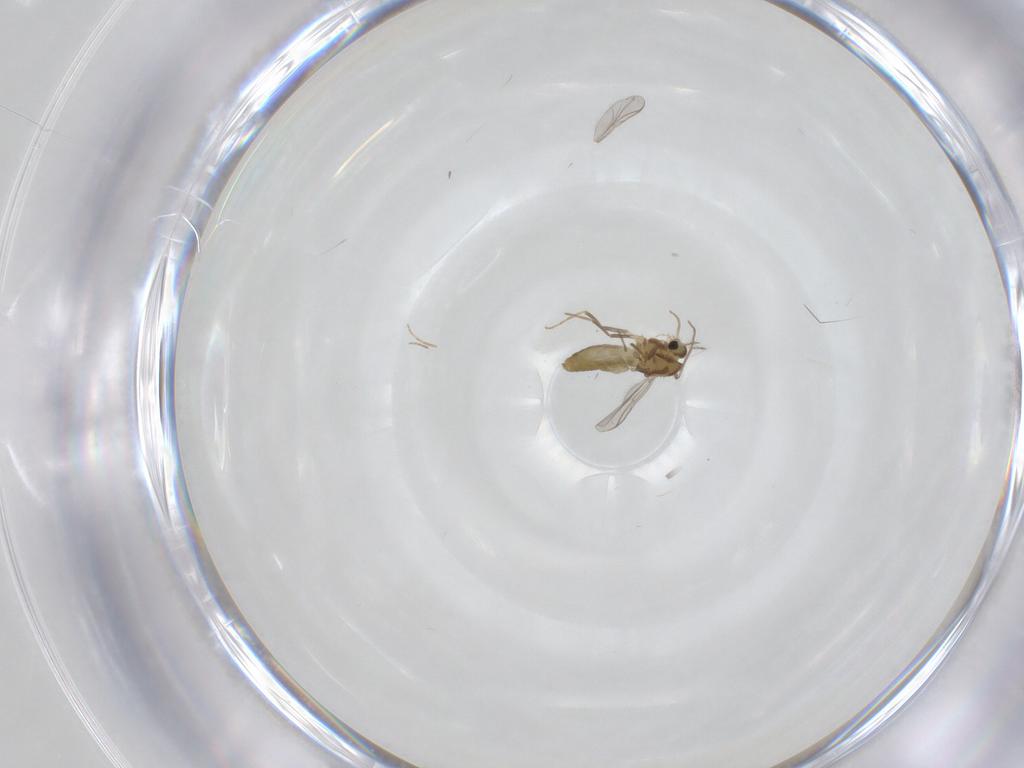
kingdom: Animalia
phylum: Arthropoda
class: Insecta
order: Diptera
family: Chironomidae
